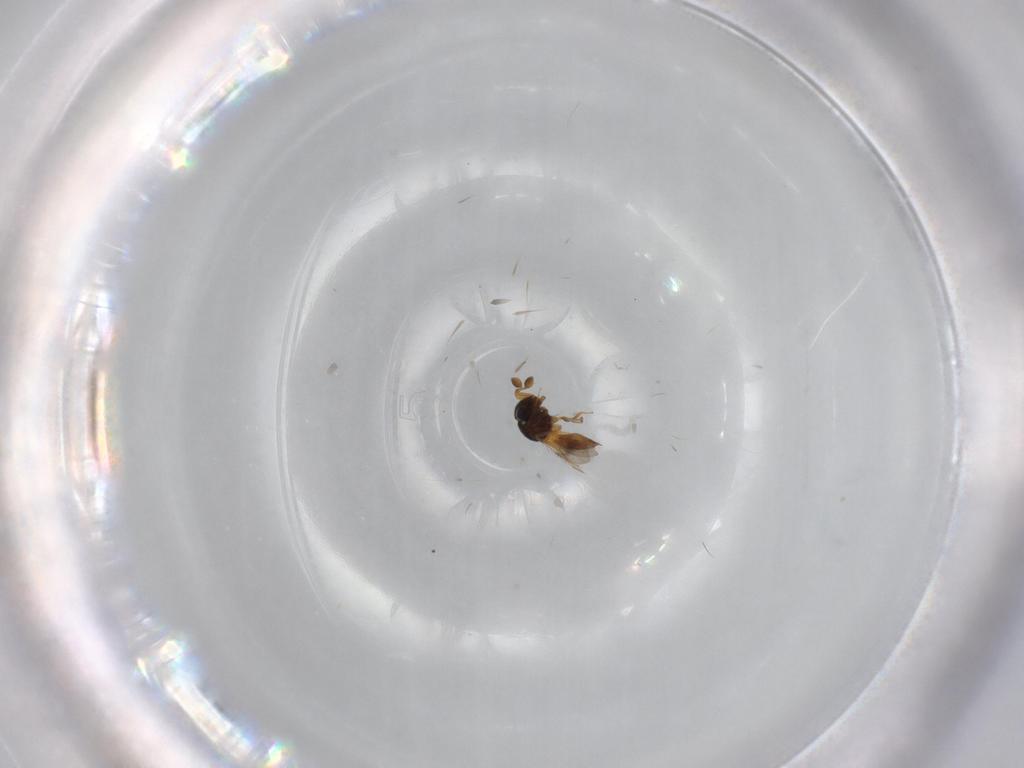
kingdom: Animalia
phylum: Arthropoda
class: Insecta
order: Hymenoptera
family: Scelionidae
